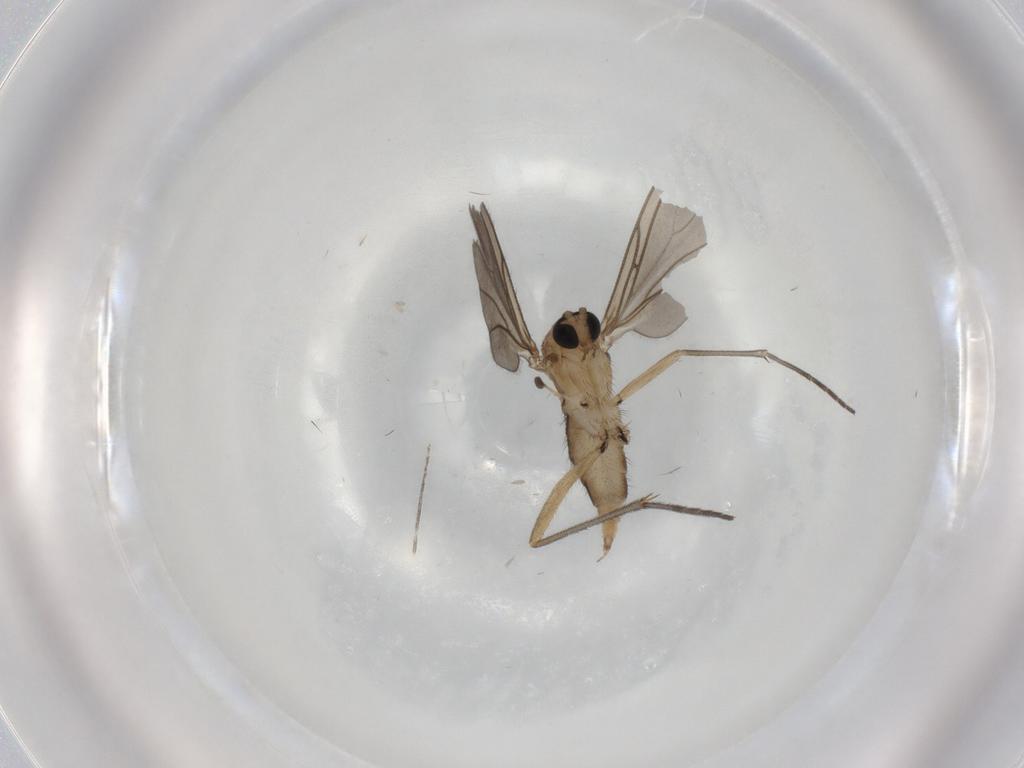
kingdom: Animalia
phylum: Arthropoda
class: Insecta
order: Diptera
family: Sciaridae
